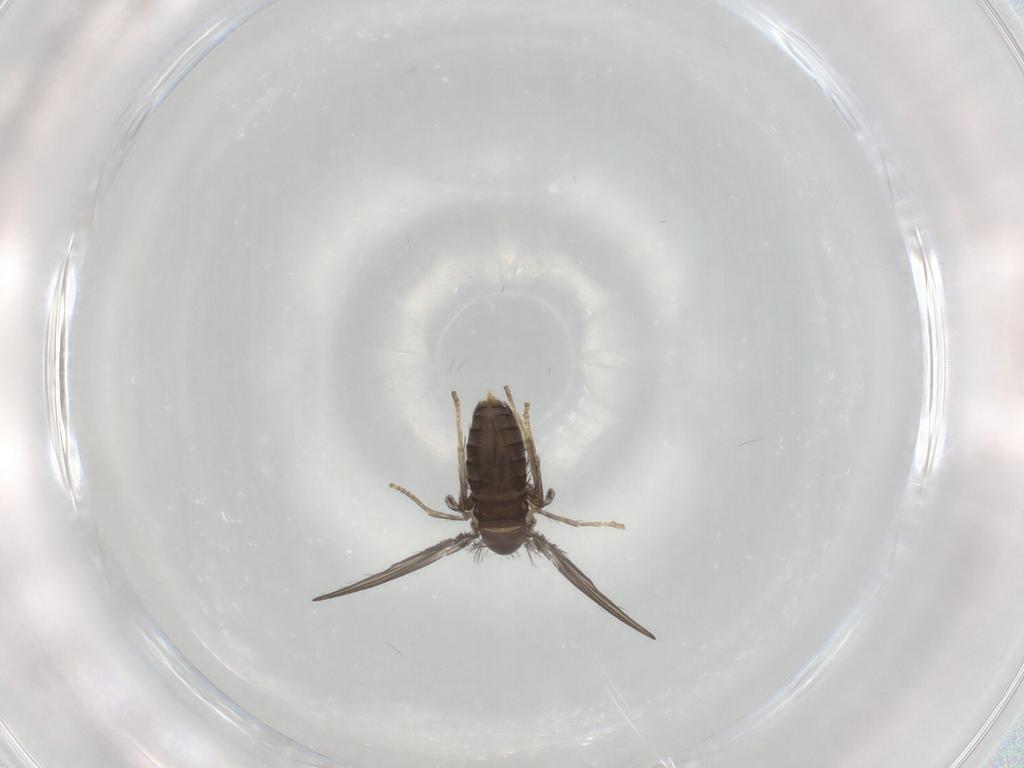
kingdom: Animalia
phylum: Arthropoda
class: Insecta
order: Diptera
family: Psychodidae
